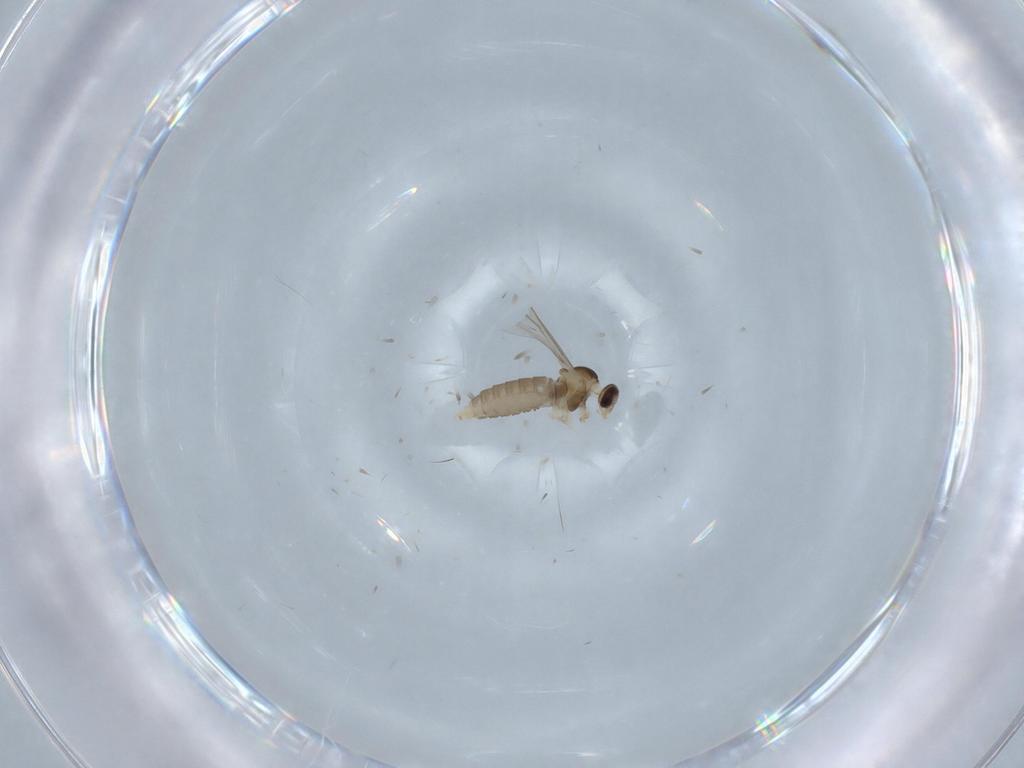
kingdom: Animalia
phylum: Arthropoda
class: Insecta
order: Diptera
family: Cecidomyiidae
